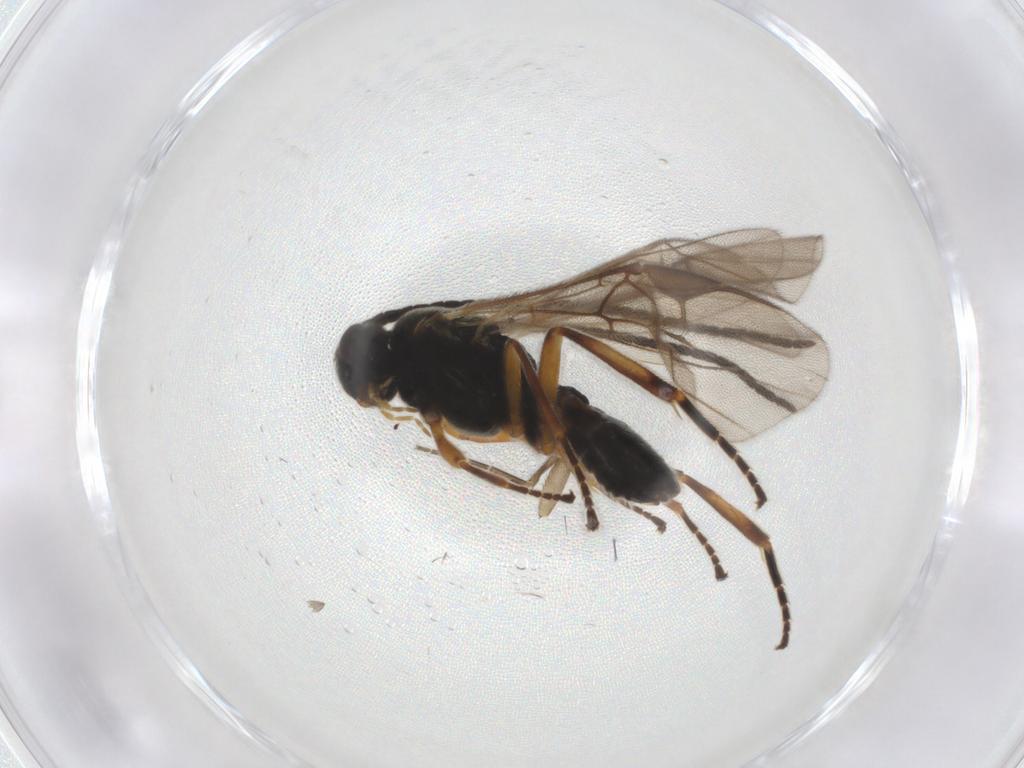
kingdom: Animalia
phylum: Arthropoda
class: Insecta
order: Hymenoptera
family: Braconidae
